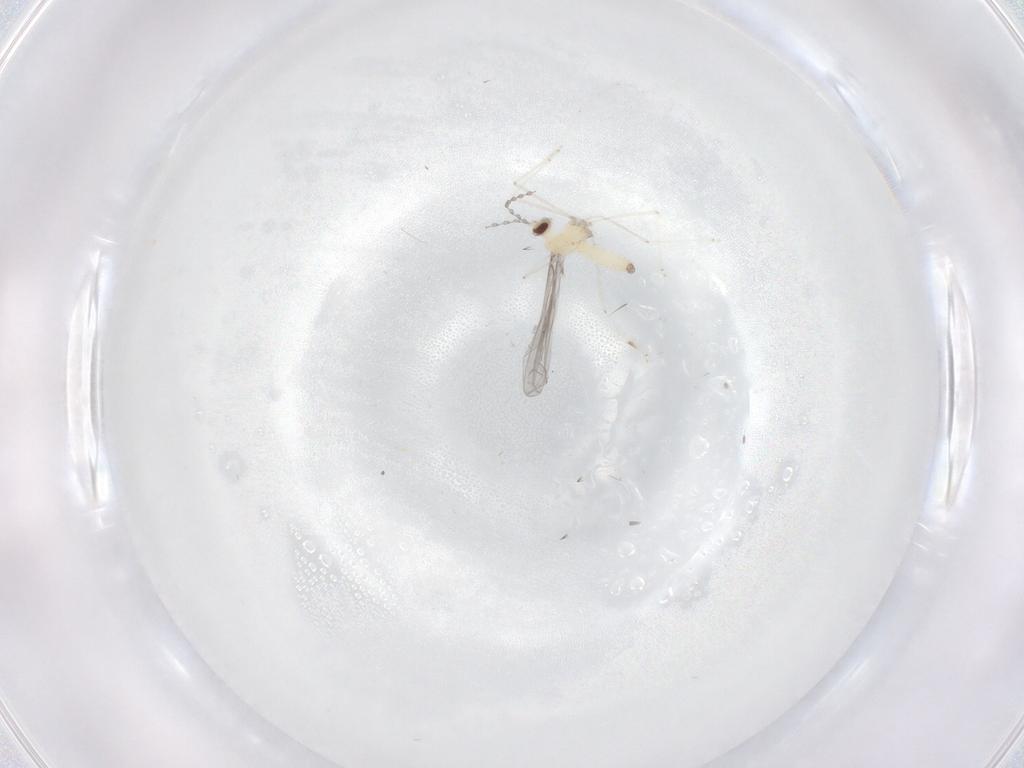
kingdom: Animalia
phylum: Arthropoda
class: Insecta
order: Diptera
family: Cecidomyiidae
